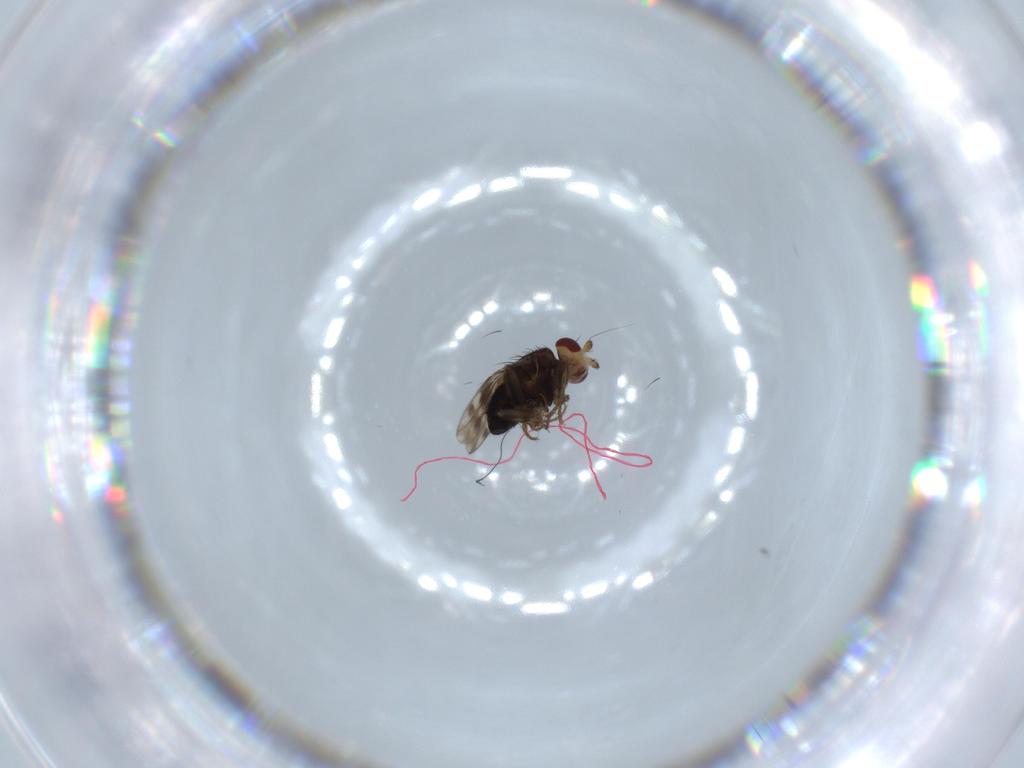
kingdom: Animalia
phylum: Arthropoda
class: Insecta
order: Diptera
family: Sphaeroceridae
